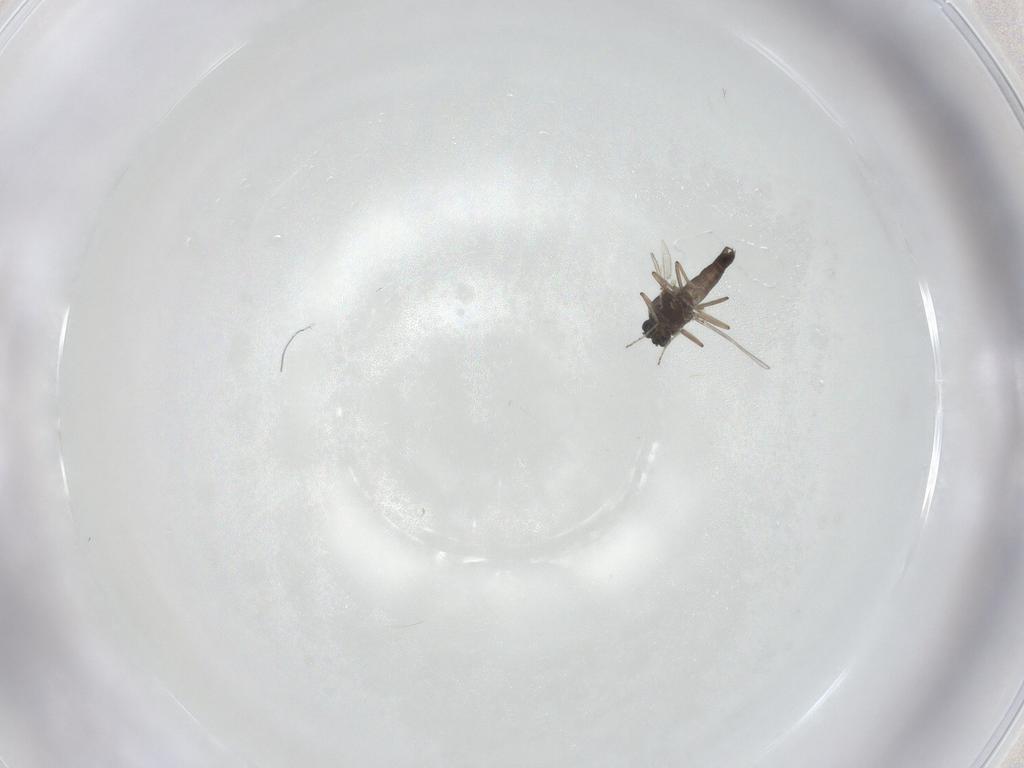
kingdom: Animalia
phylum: Arthropoda
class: Insecta
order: Diptera
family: Ceratopogonidae
